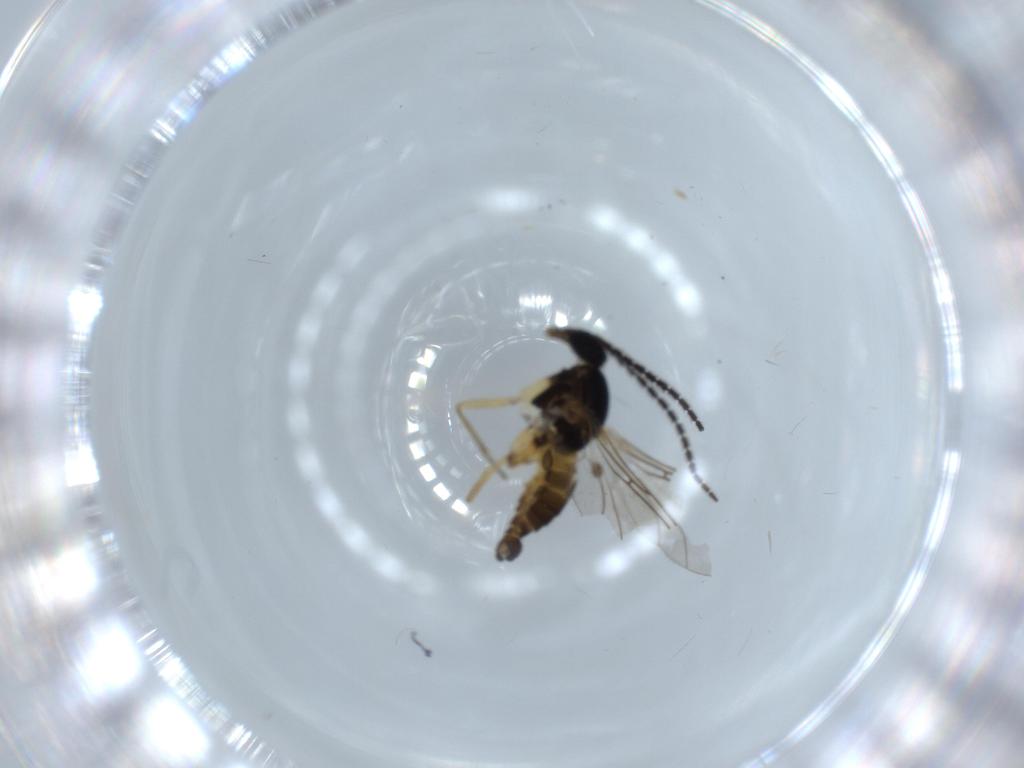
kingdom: Animalia
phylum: Arthropoda
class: Insecta
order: Diptera
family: Sciaridae
